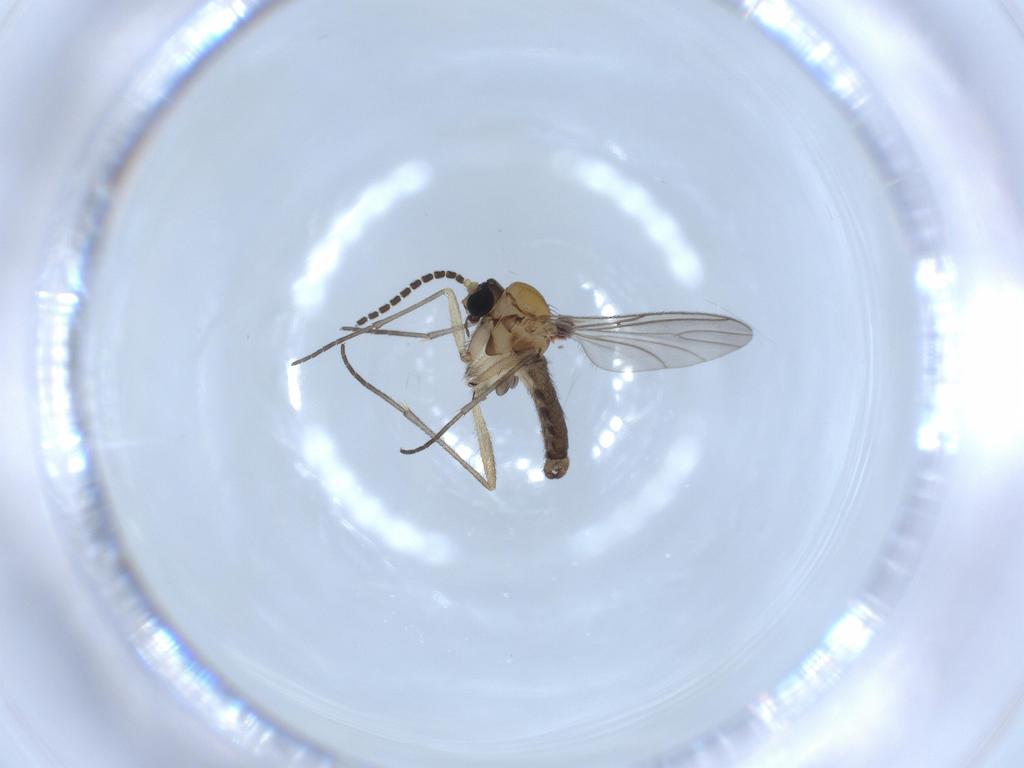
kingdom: Animalia
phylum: Arthropoda
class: Insecta
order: Diptera
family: Sciaridae
